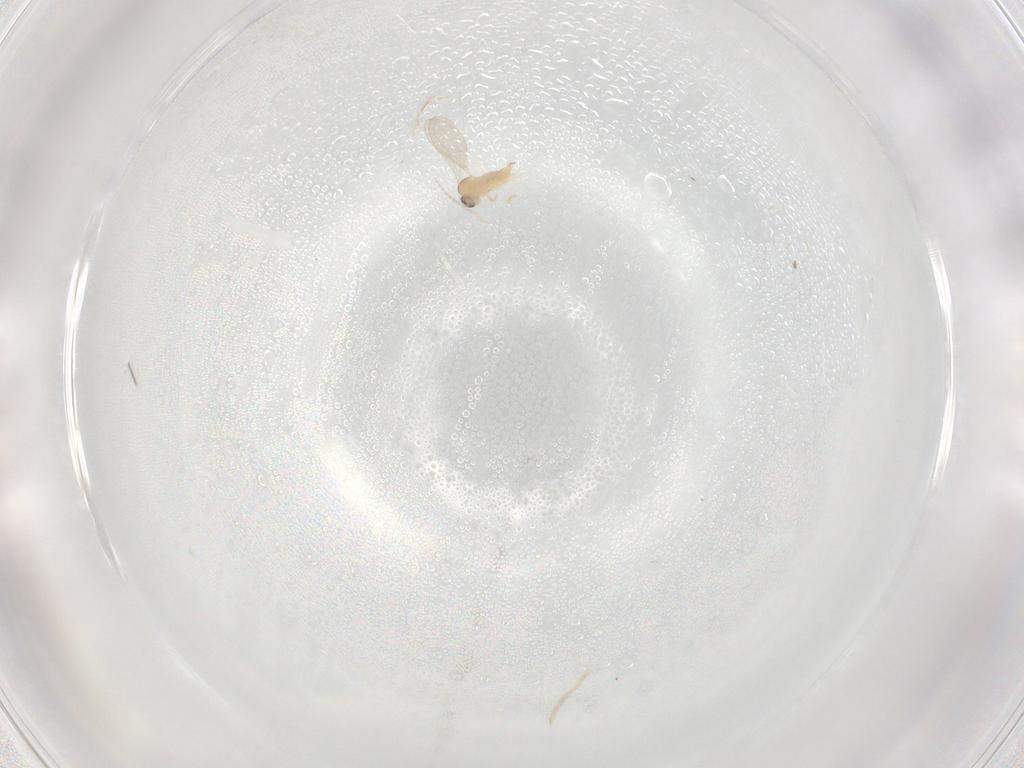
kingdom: Animalia
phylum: Arthropoda
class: Insecta
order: Diptera
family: Cecidomyiidae
